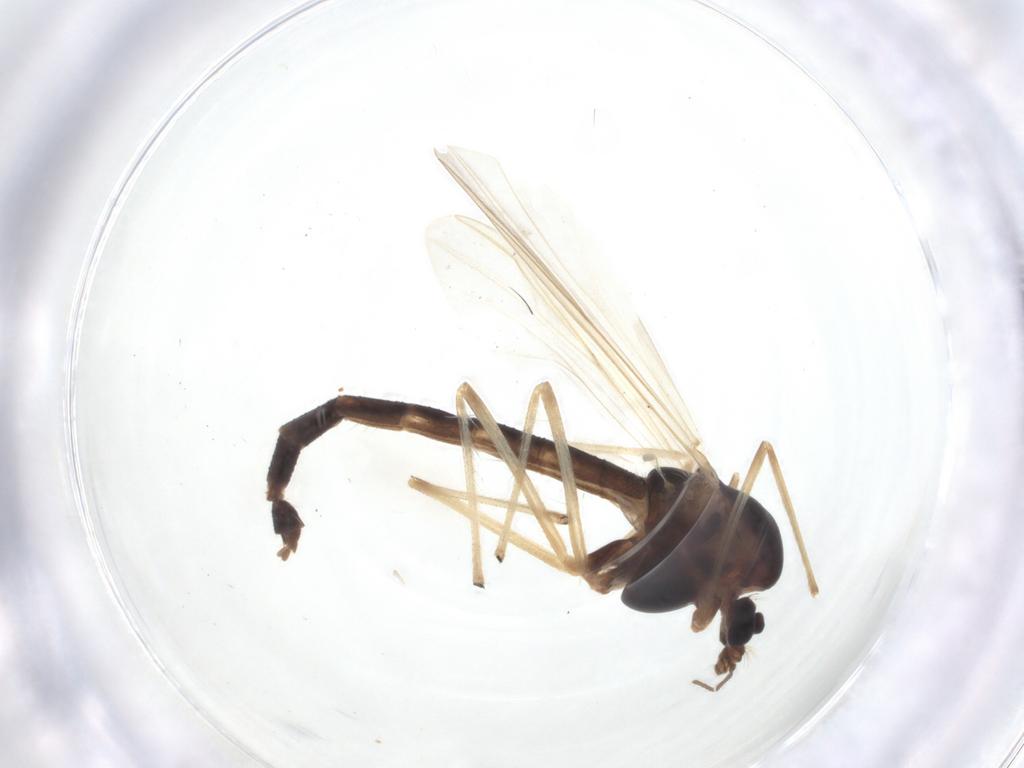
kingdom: Animalia
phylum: Arthropoda
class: Insecta
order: Diptera
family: Chironomidae
